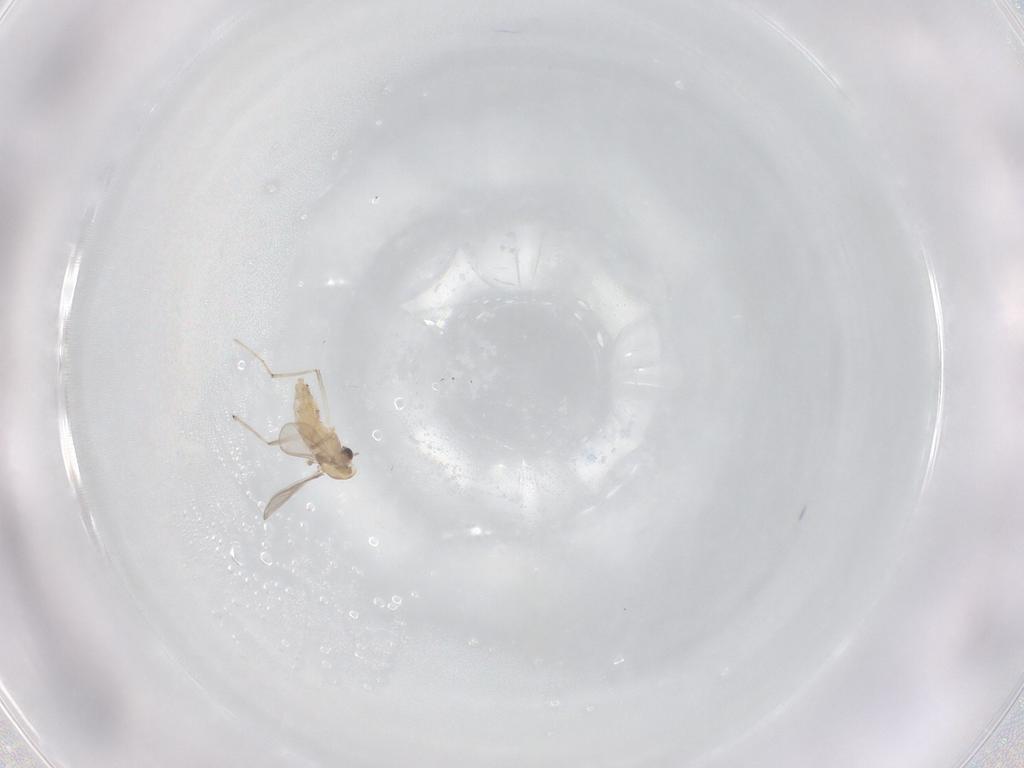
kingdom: Animalia
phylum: Arthropoda
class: Insecta
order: Diptera
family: Chironomidae
